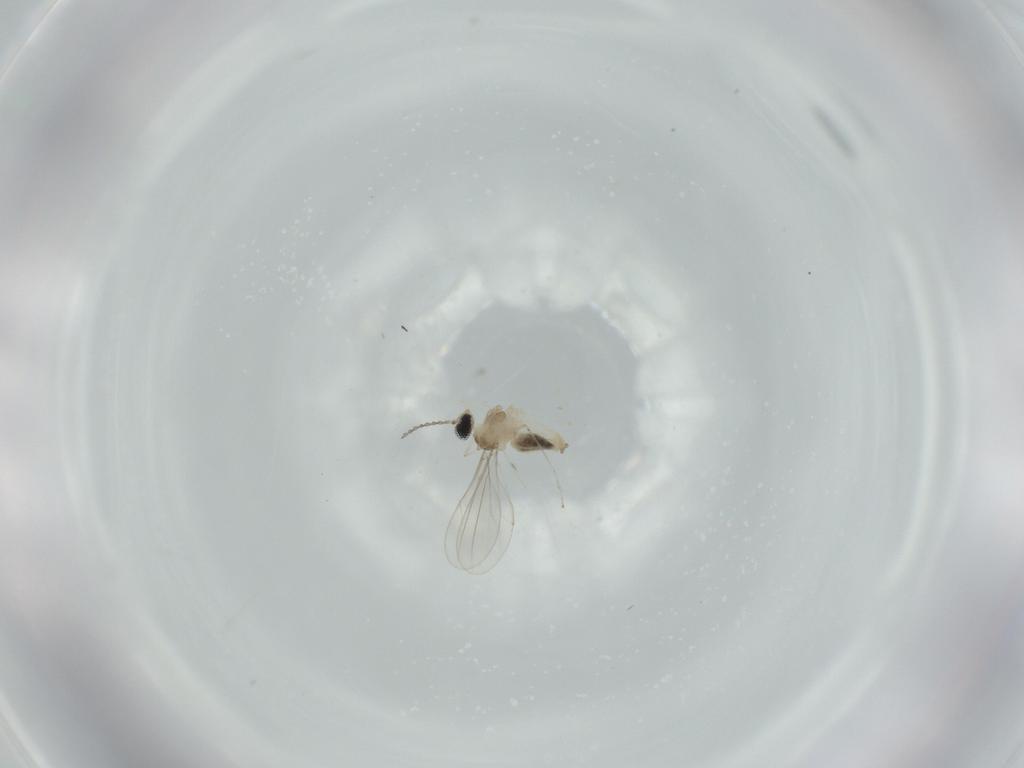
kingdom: Animalia
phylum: Arthropoda
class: Insecta
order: Diptera
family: Cecidomyiidae
